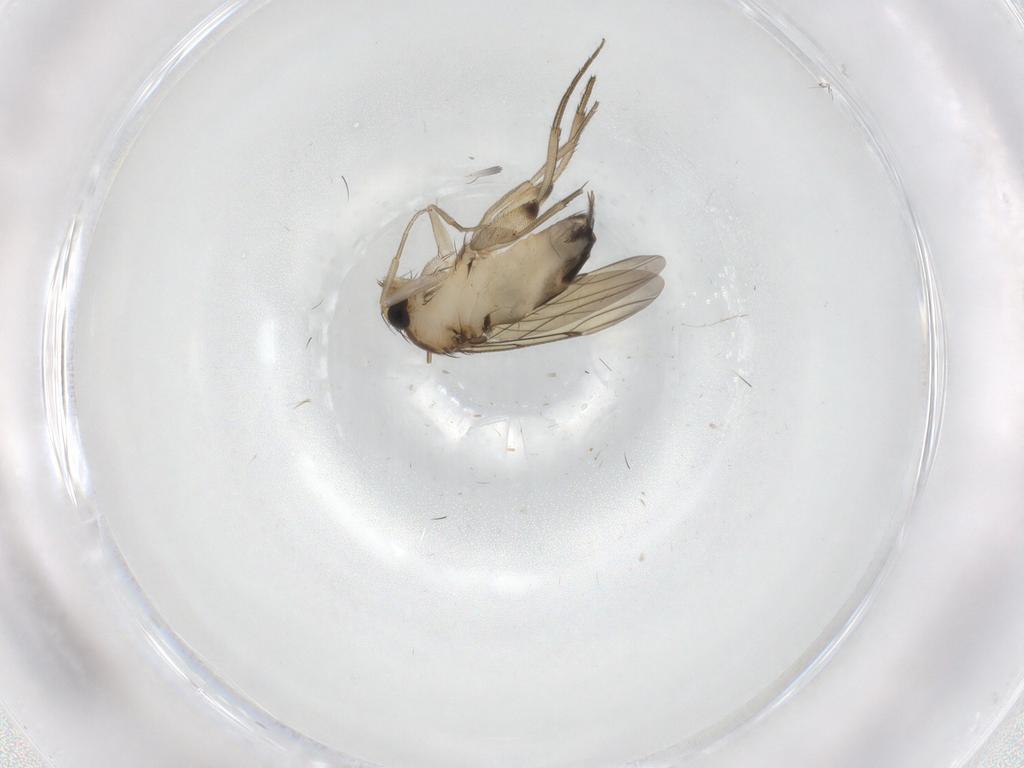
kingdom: Animalia
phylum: Arthropoda
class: Insecta
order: Diptera
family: Phoridae
